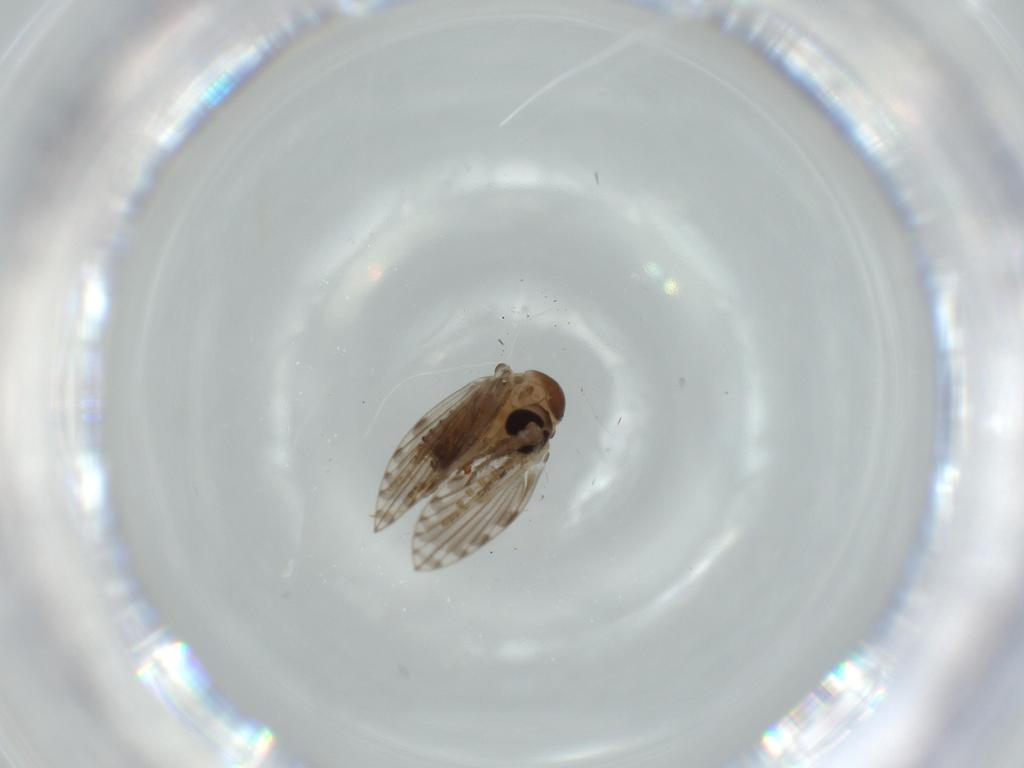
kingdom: Animalia
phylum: Arthropoda
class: Insecta
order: Diptera
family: Psychodidae
